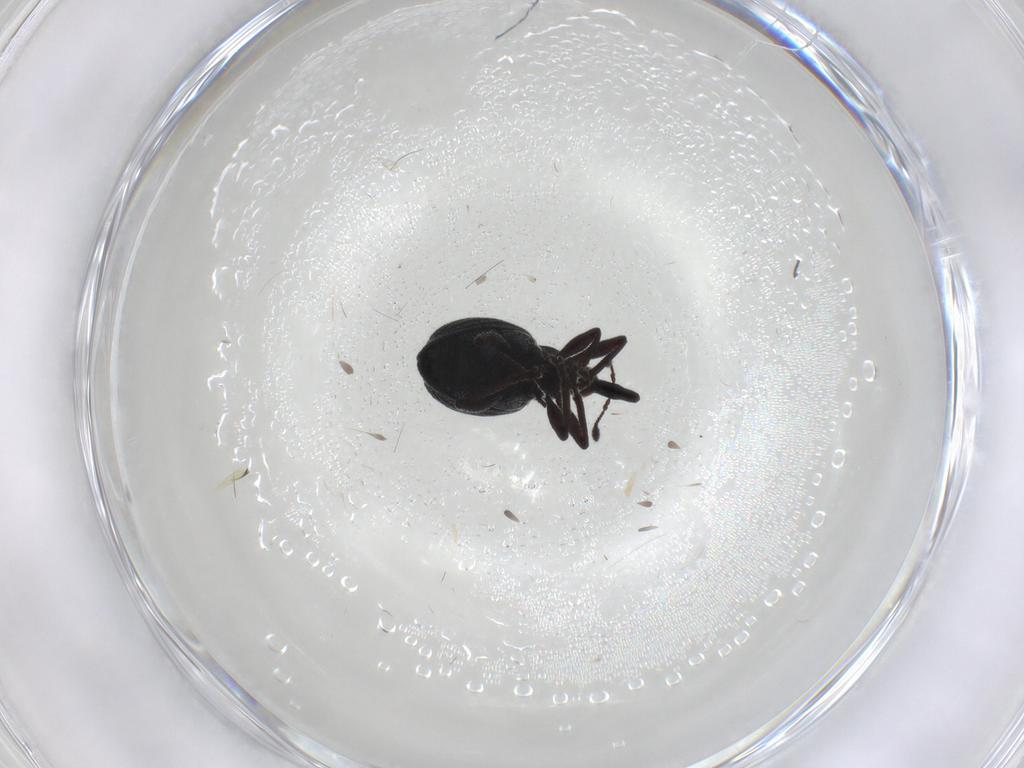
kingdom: Animalia
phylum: Arthropoda
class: Insecta
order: Coleoptera
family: Brentidae
